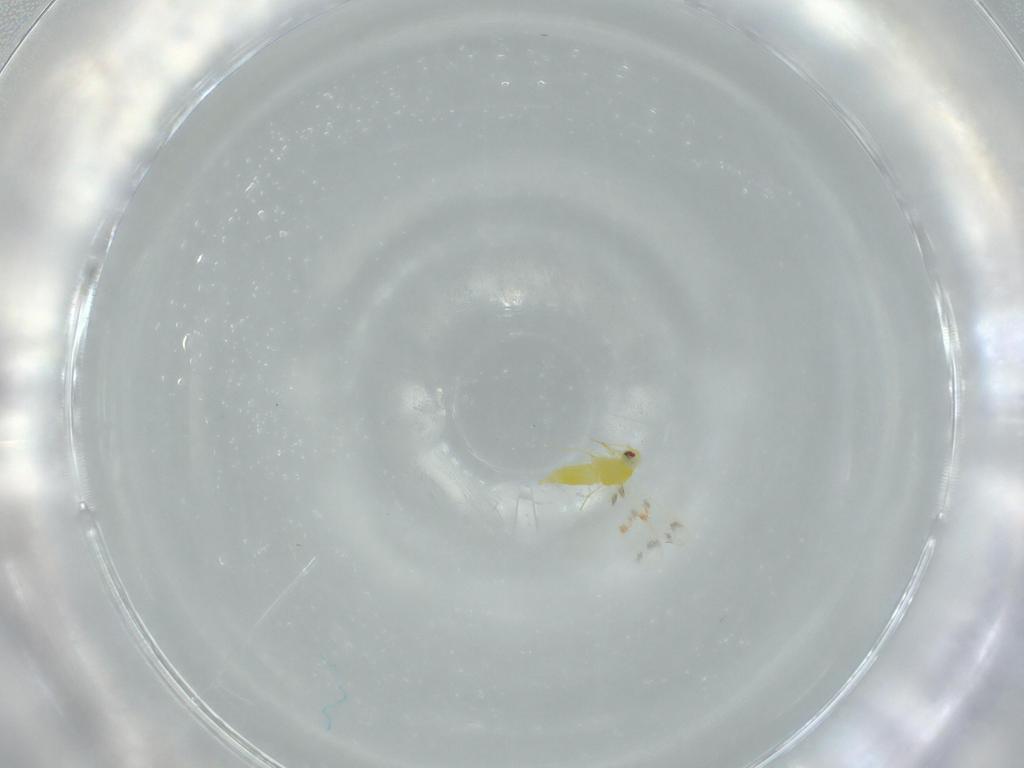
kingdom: Animalia
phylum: Arthropoda
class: Insecta
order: Hemiptera
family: Aleyrodidae
